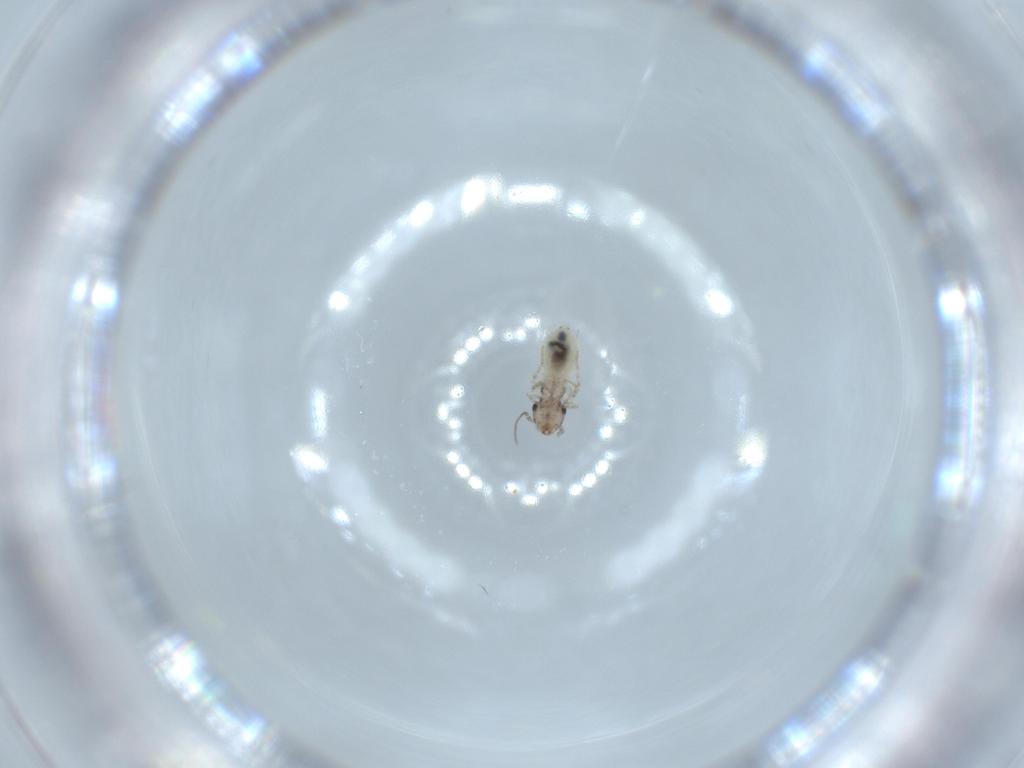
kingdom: Animalia
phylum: Arthropoda
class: Insecta
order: Psocodea
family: Lepidopsocidae
